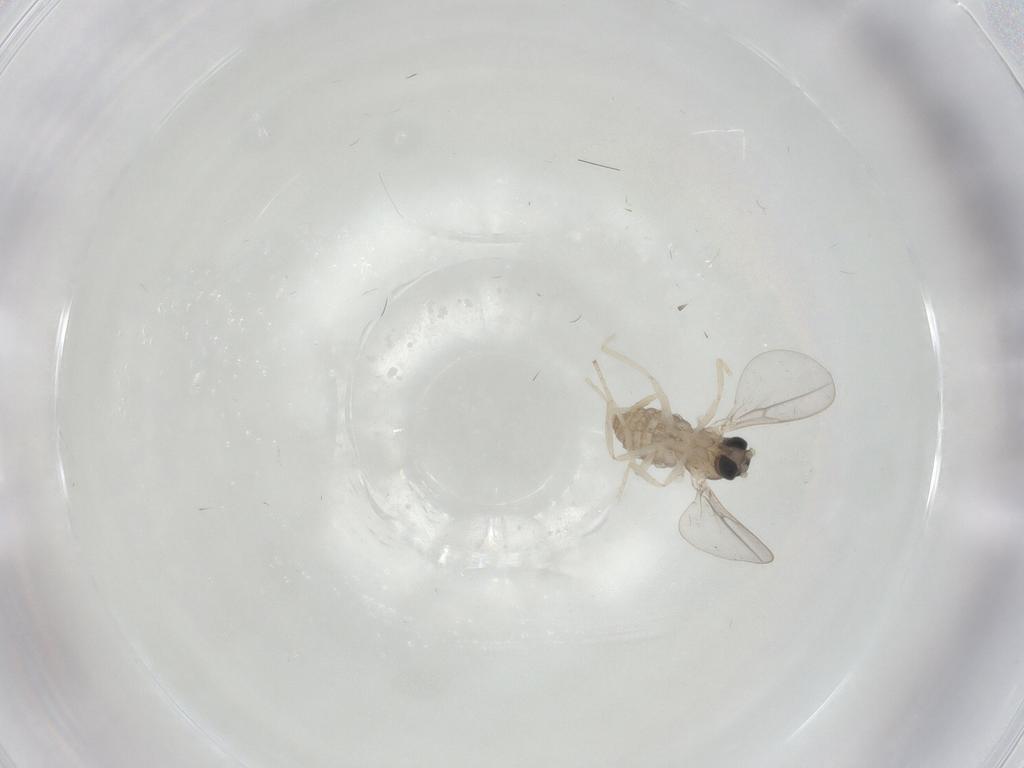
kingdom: Animalia
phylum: Arthropoda
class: Insecta
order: Diptera
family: Cecidomyiidae
